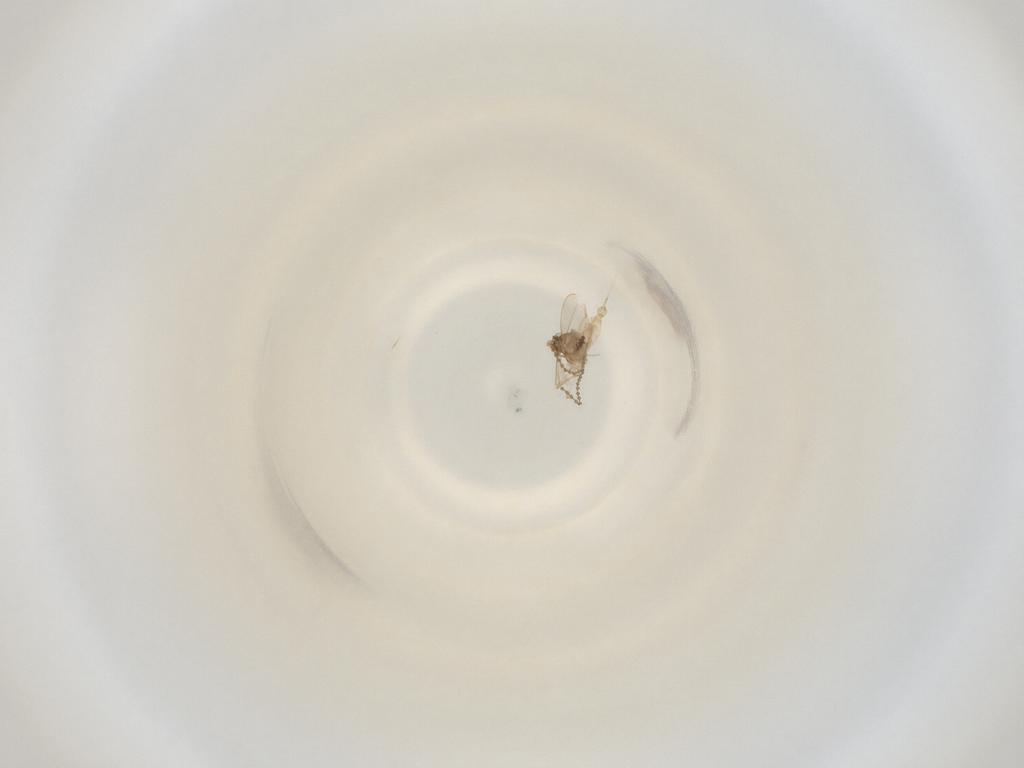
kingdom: Animalia
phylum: Arthropoda
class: Insecta
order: Diptera
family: Cecidomyiidae
